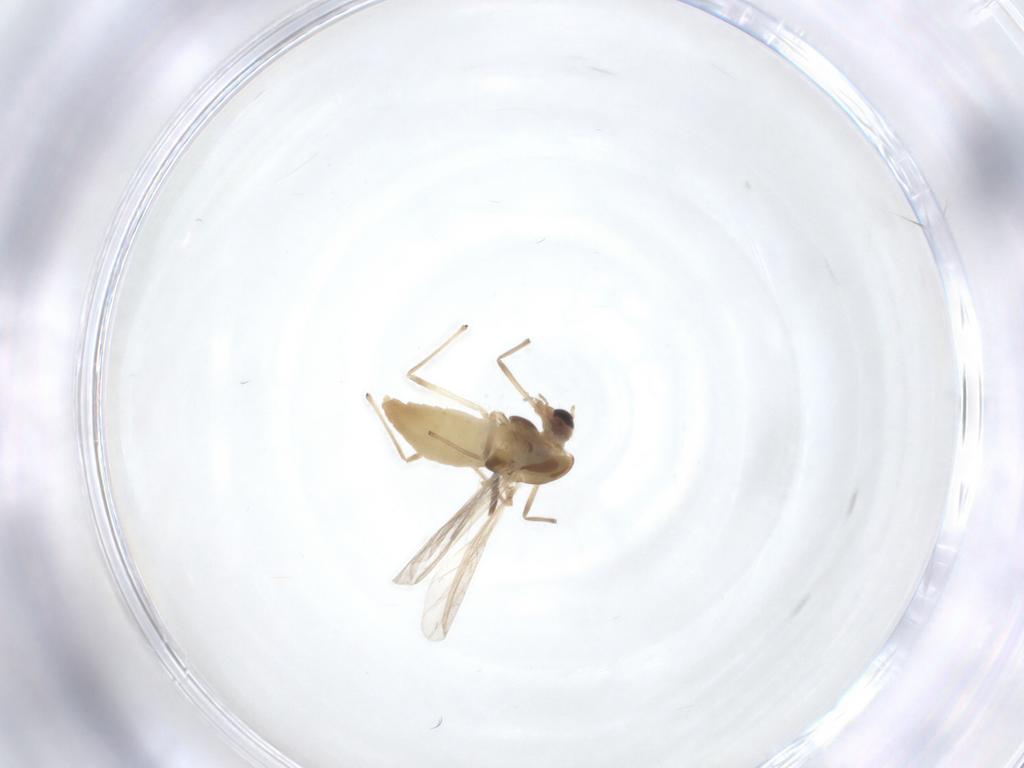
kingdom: Animalia
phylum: Arthropoda
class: Insecta
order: Diptera
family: Chironomidae
